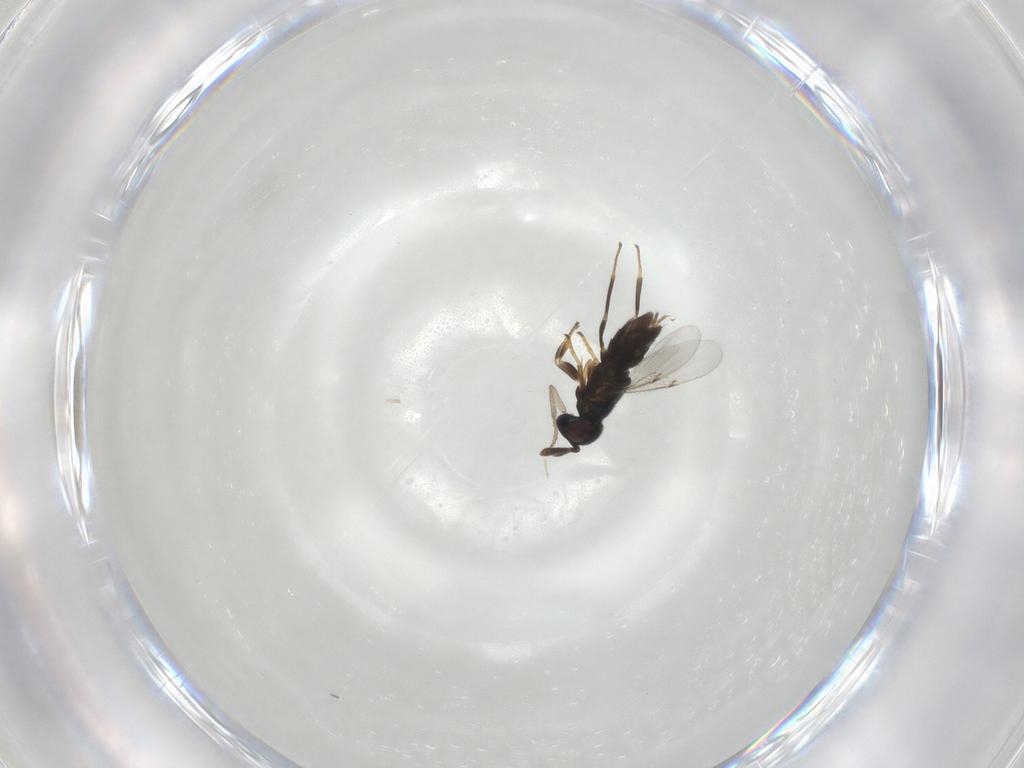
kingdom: Animalia
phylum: Arthropoda
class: Insecta
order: Hymenoptera
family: Encyrtidae
